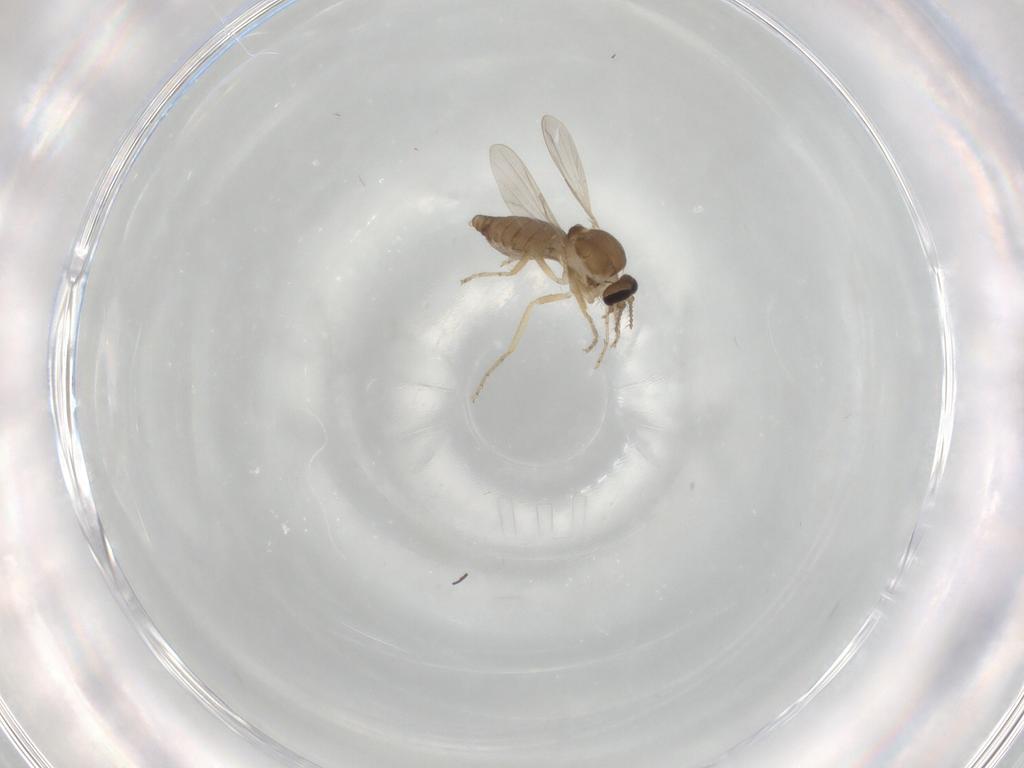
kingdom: Animalia
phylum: Arthropoda
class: Insecta
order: Diptera
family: Ceratopogonidae
